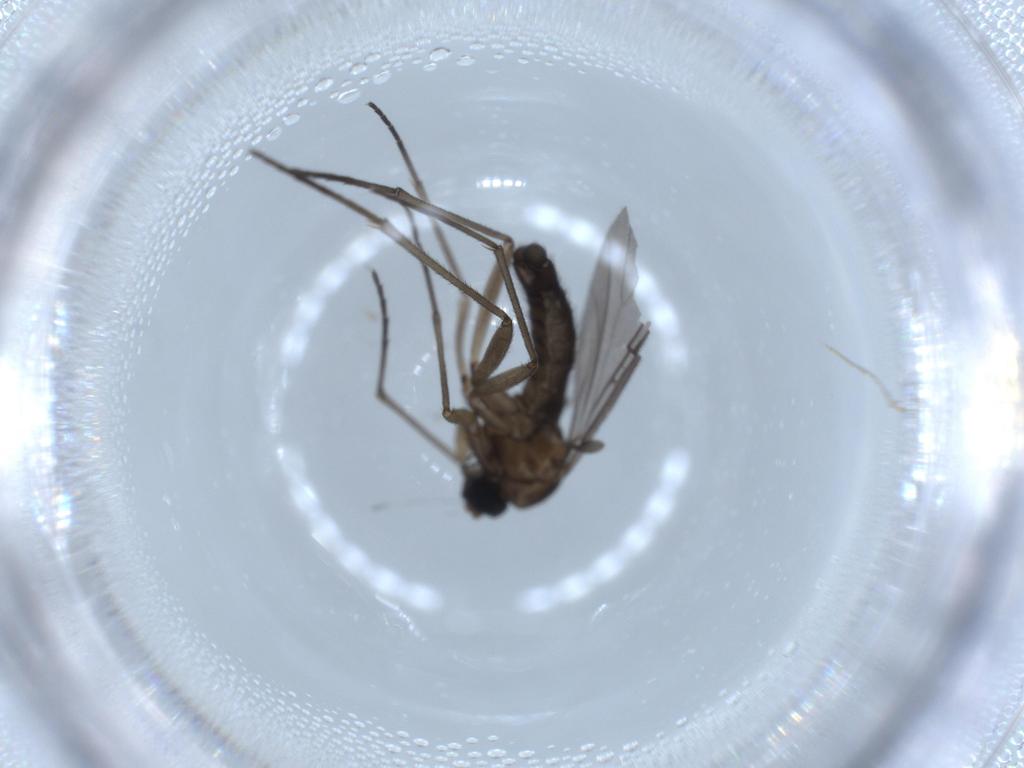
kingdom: Animalia
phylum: Arthropoda
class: Insecta
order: Diptera
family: Sciaridae
